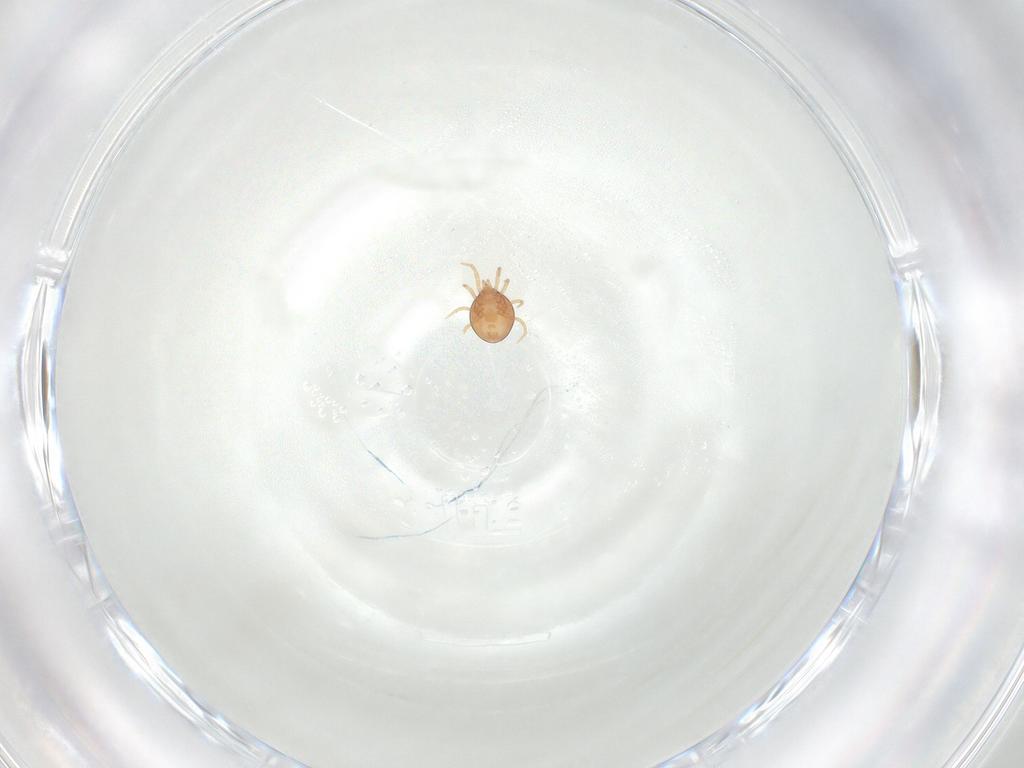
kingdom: Animalia
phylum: Arthropoda
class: Arachnida
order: Mesostigmata
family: Phytoseiidae
